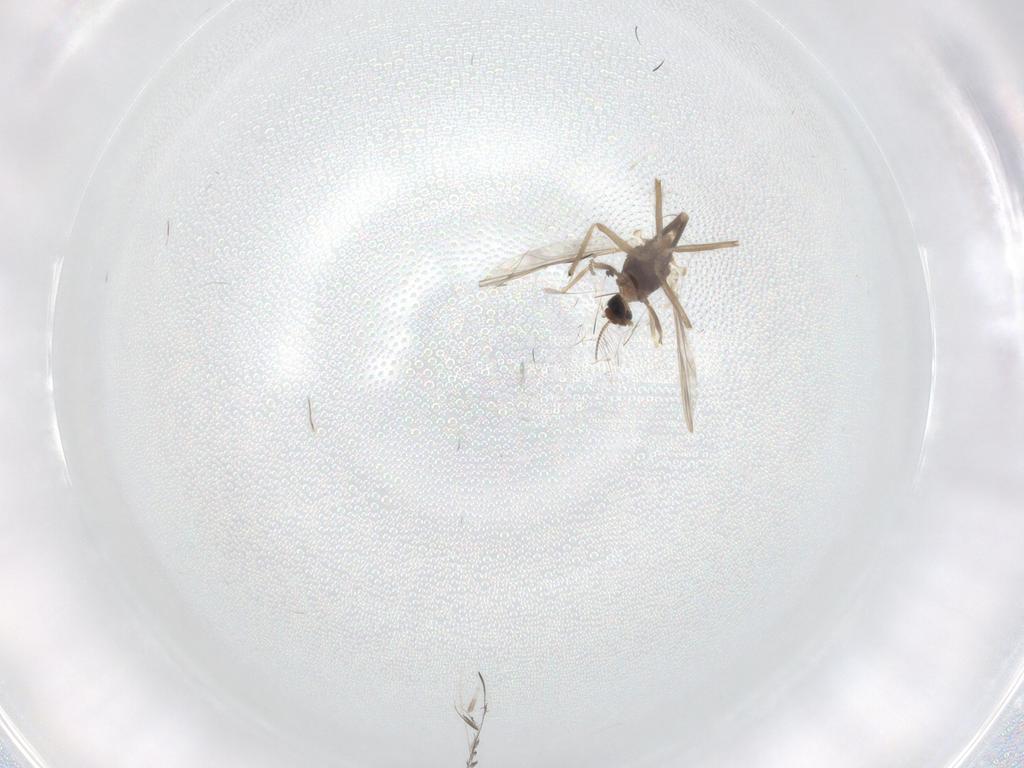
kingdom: Animalia
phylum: Arthropoda
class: Insecta
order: Diptera
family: Chironomidae
